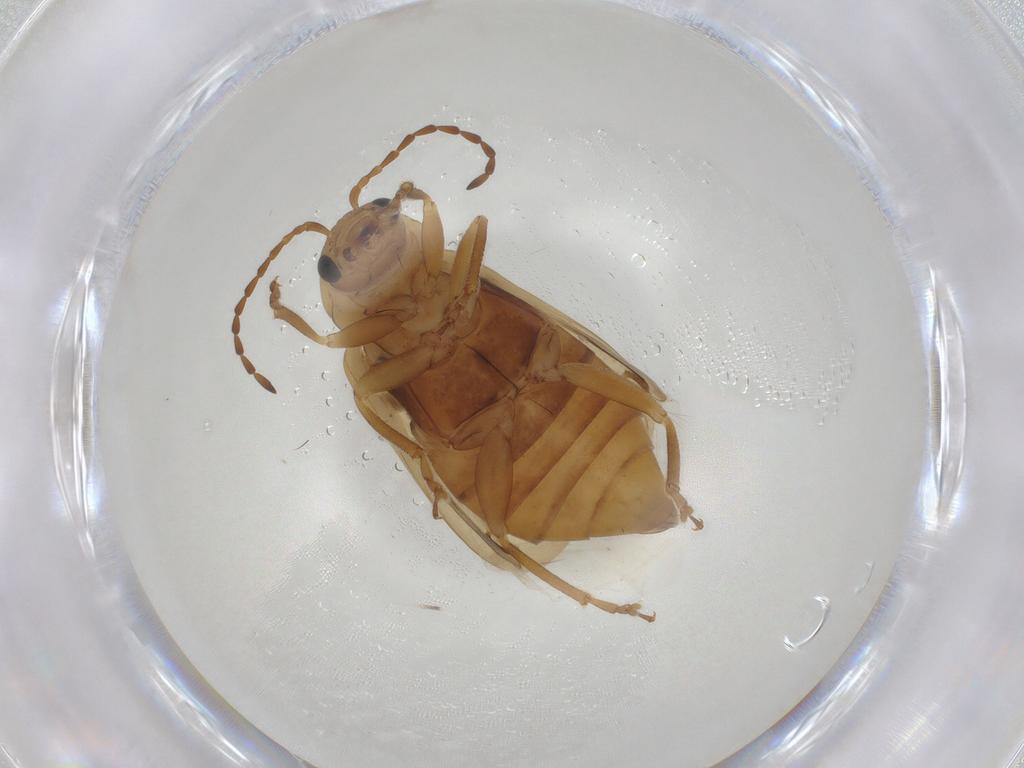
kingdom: Animalia
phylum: Arthropoda
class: Insecta
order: Coleoptera
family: Chrysomelidae
